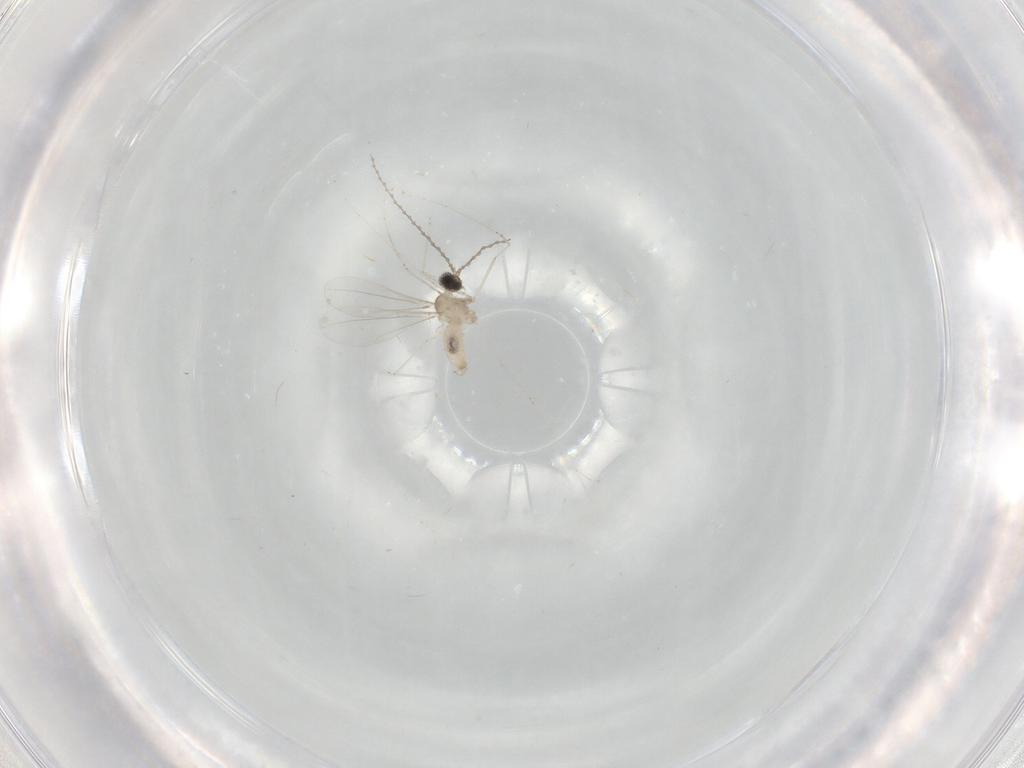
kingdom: Animalia
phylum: Arthropoda
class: Insecta
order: Diptera
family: Cecidomyiidae
